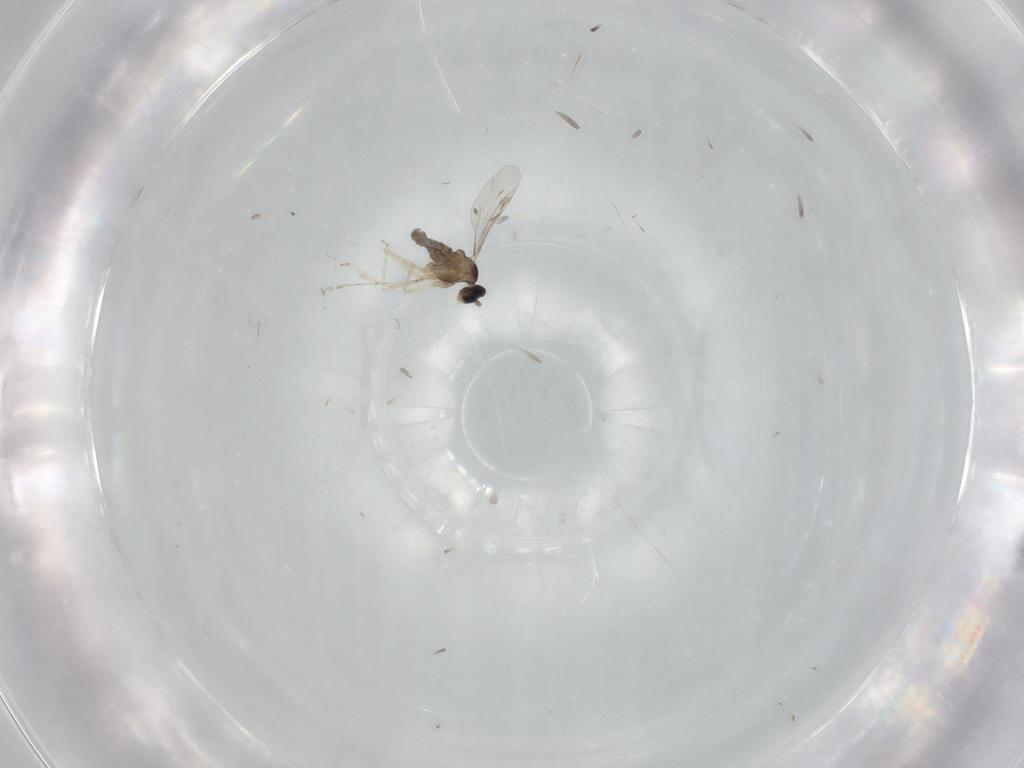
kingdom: Animalia
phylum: Arthropoda
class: Insecta
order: Diptera
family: Cecidomyiidae
